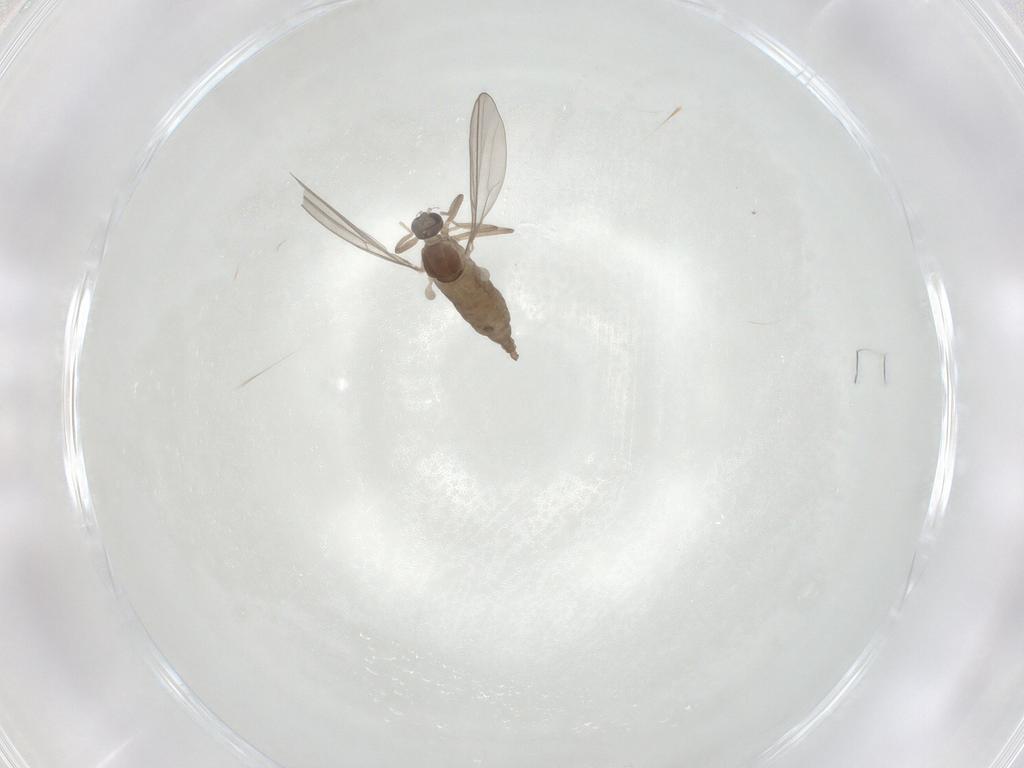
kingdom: Animalia
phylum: Arthropoda
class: Insecta
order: Diptera
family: Cecidomyiidae
